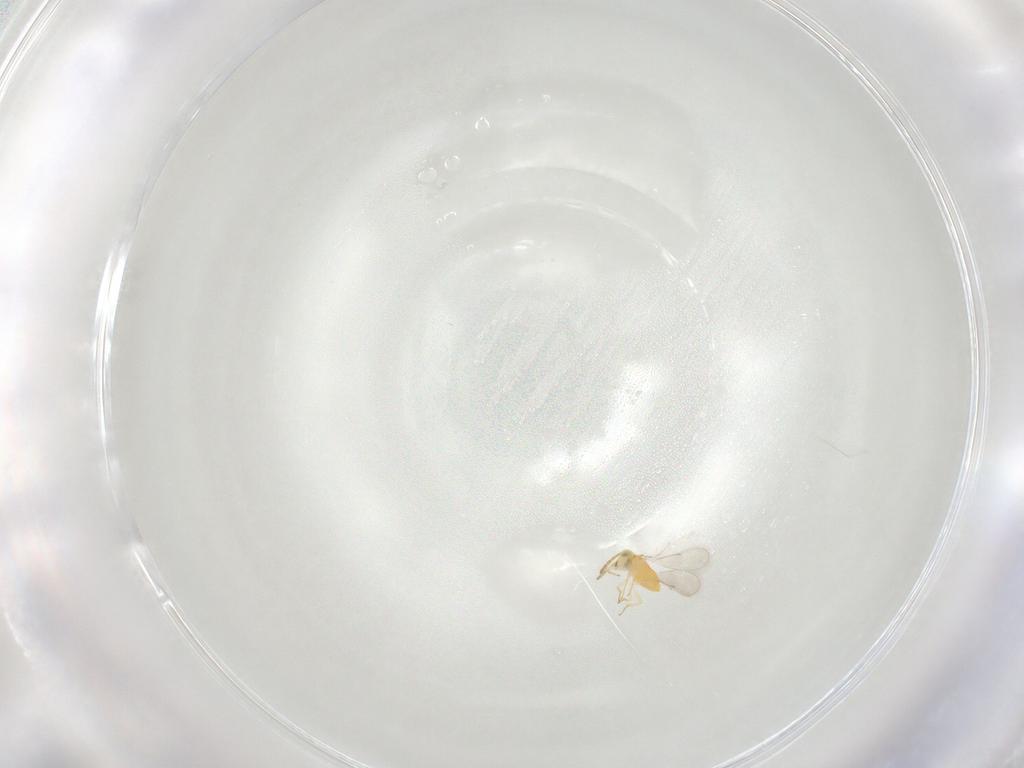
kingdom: Animalia
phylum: Arthropoda
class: Insecta
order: Hymenoptera
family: Aphelinidae
